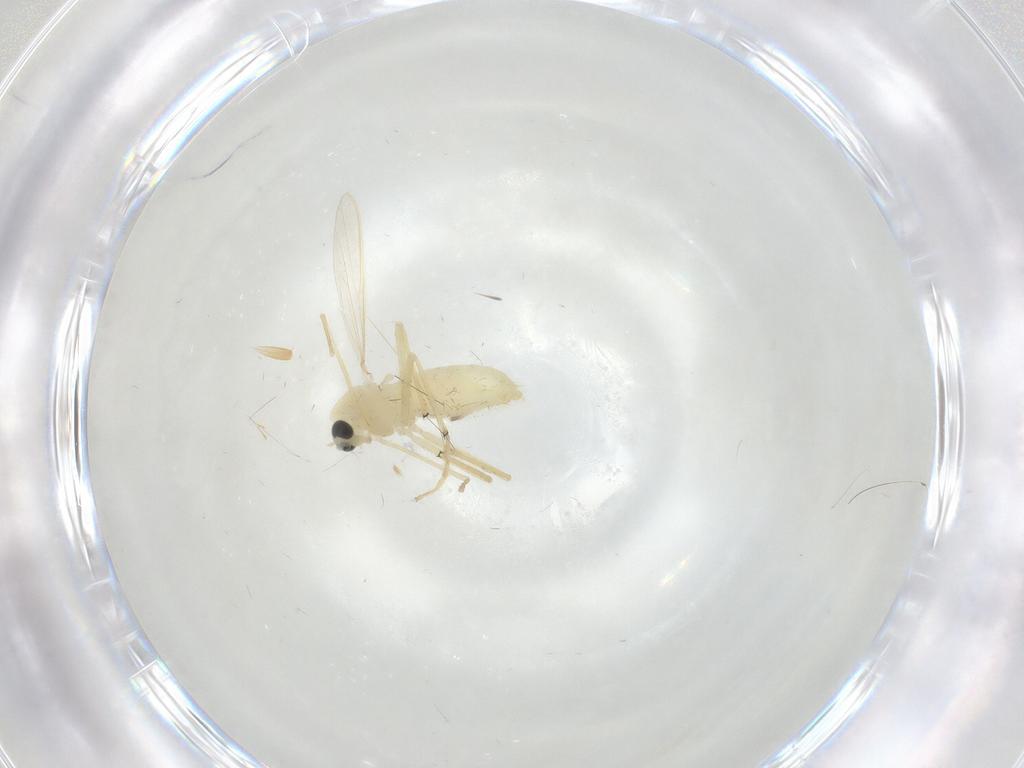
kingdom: Animalia
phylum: Arthropoda
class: Insecta
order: Diptera
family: Chironomidae
